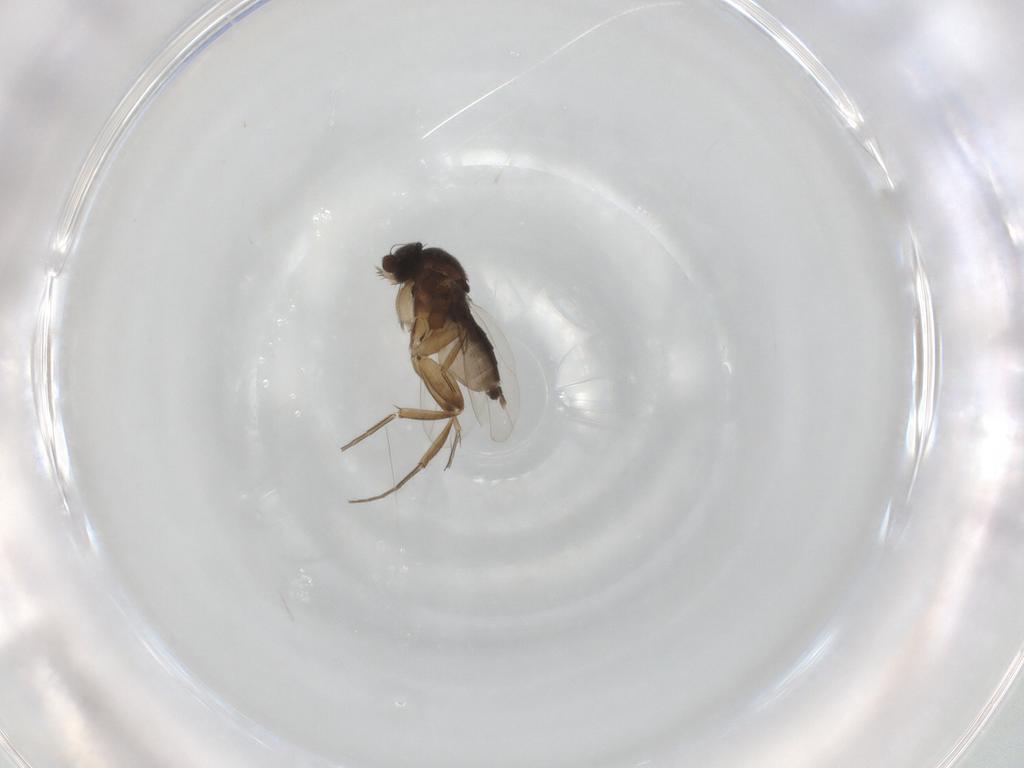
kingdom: Animalia
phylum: Arthropoda
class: Insecta
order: Diptera
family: Phoridae
